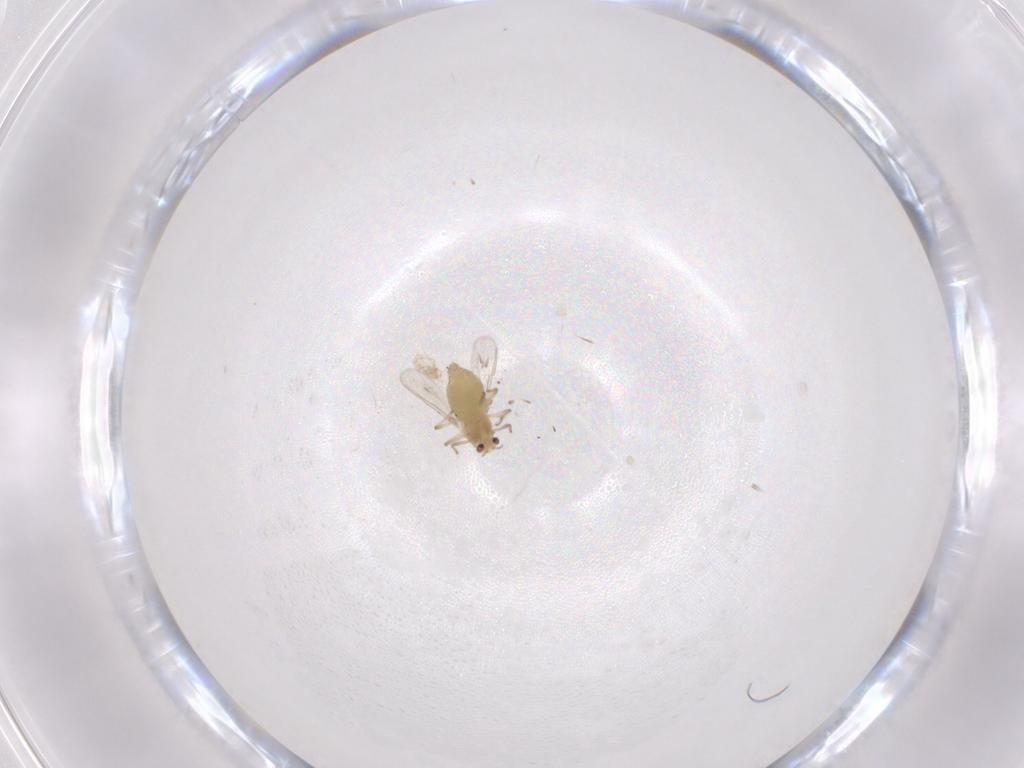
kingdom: Animalia
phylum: Arthropoda
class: Insecta
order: Diptera
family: Chironomidae
